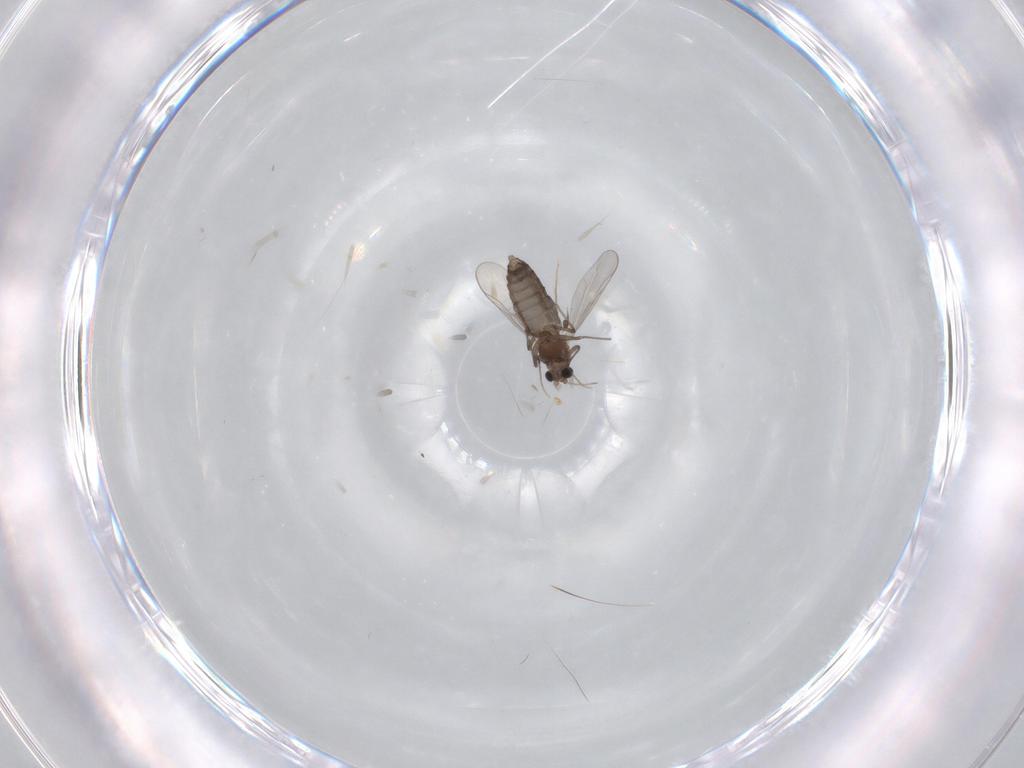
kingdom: Animalia
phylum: Arthropoda
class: Insecta
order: Diptera
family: Chironomidae
